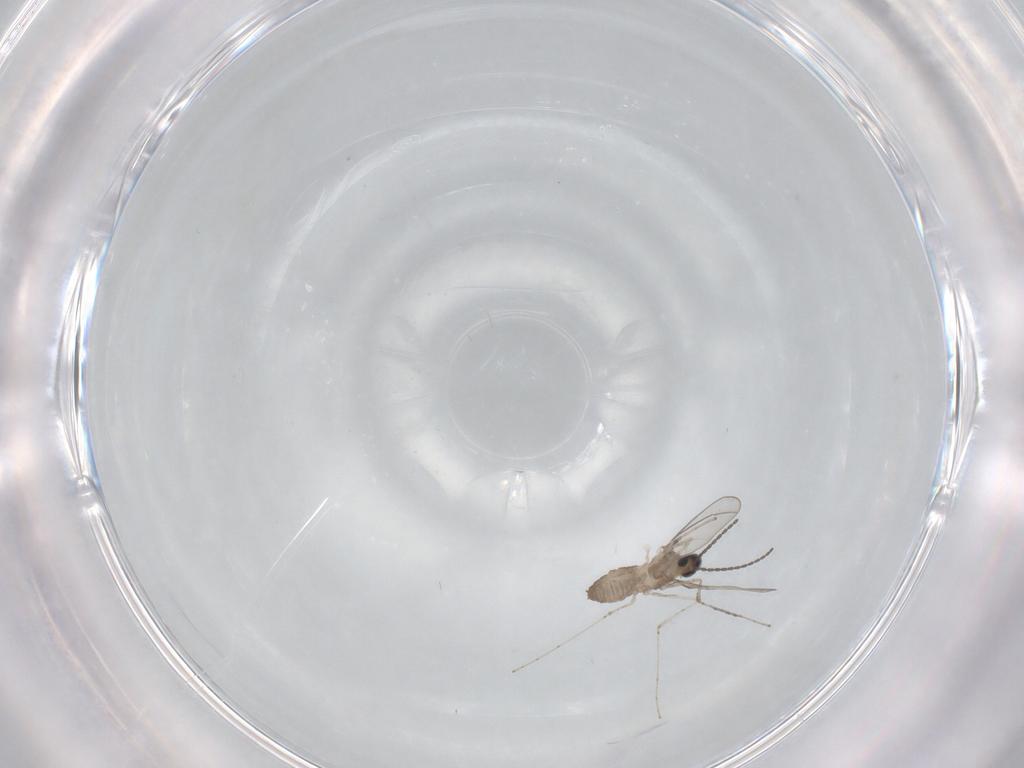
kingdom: Animalia
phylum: Arthropoda
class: Insecta
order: Diptera
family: Cecidomyiidae
